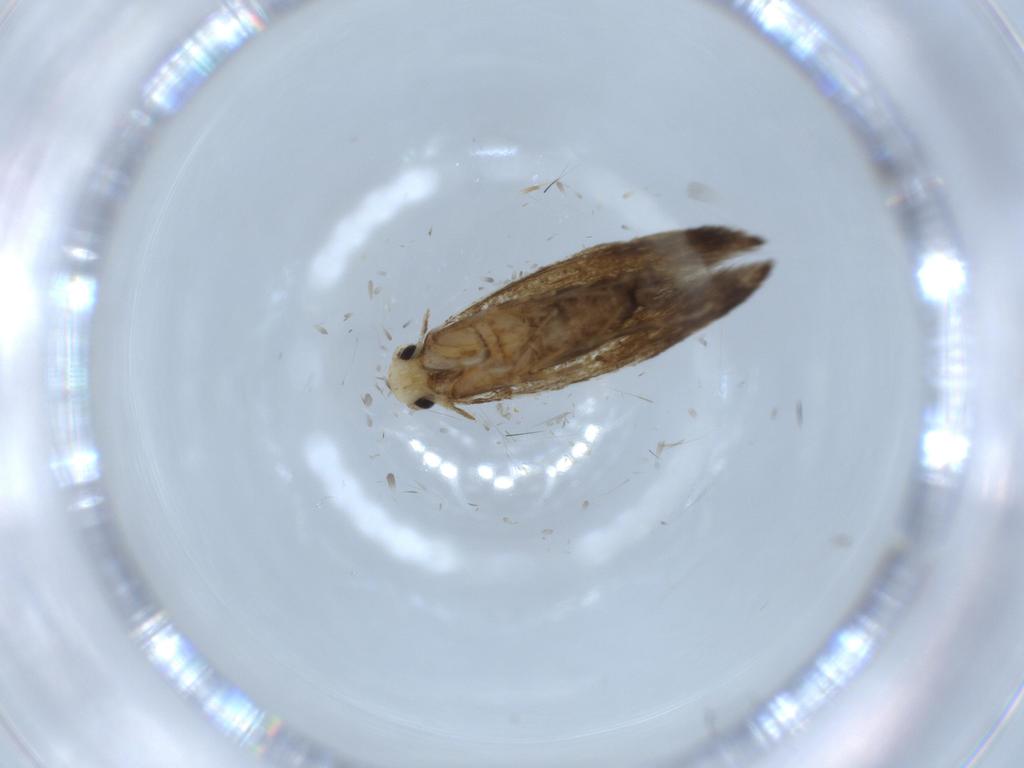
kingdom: Animalia
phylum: Arthropoda
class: Insecta
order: Lepidoptera
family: Tineidae
